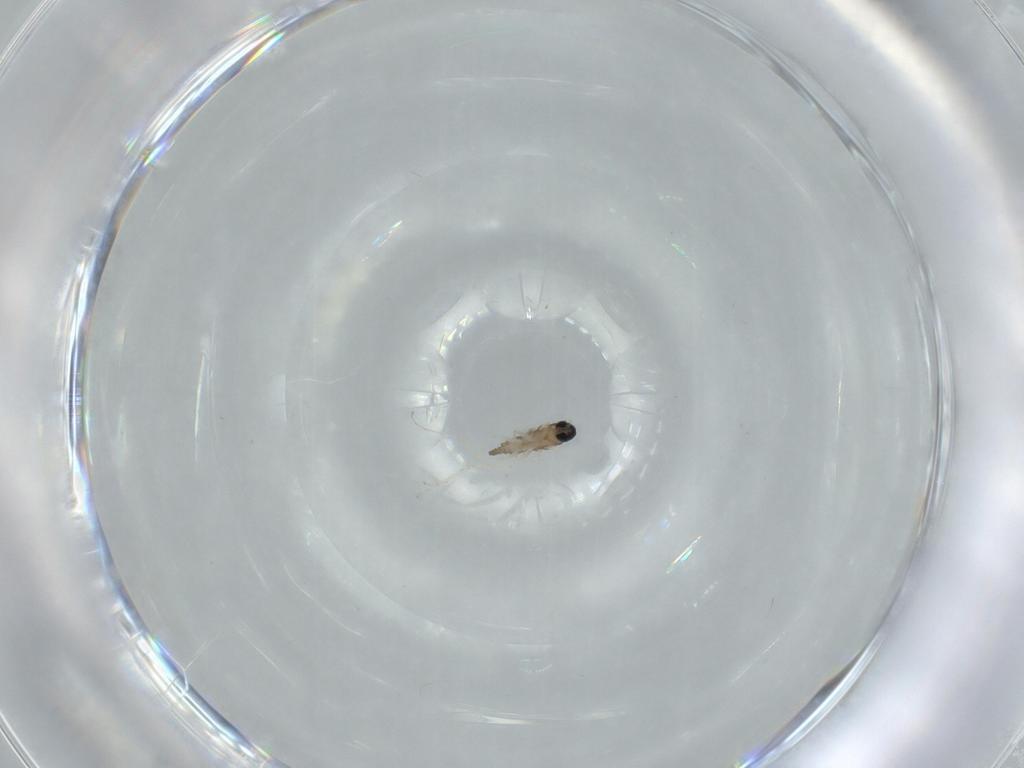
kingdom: Animalia
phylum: Arthropoda
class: Insecta
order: Diptera
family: Cecidomyiidae
